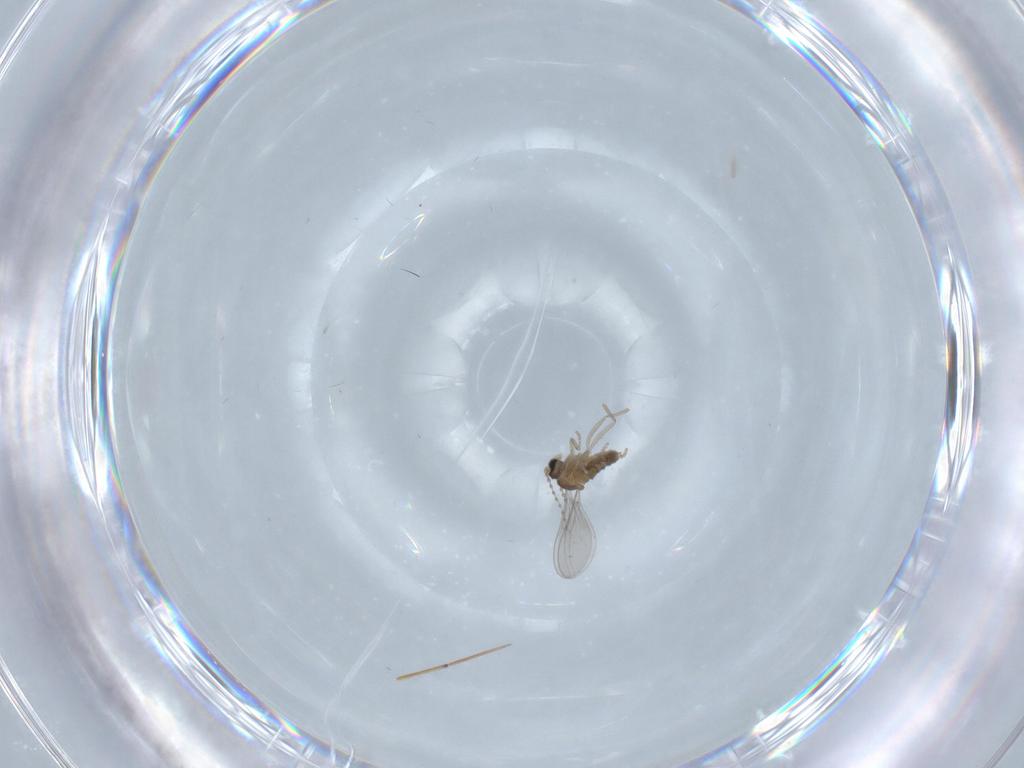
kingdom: Animalia
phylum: Arthropoda
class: Insecta
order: Diptera
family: Cecidomyiidae
